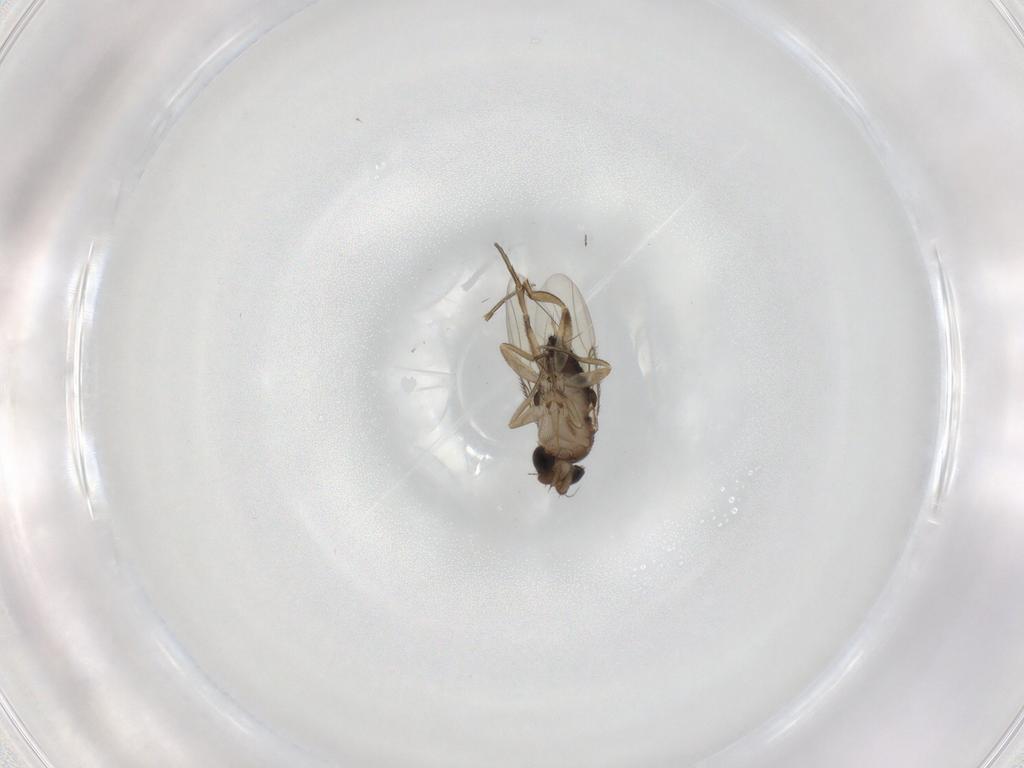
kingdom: Animalia
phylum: Arthropoda
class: Insecta
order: Diptera
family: Phoridae
